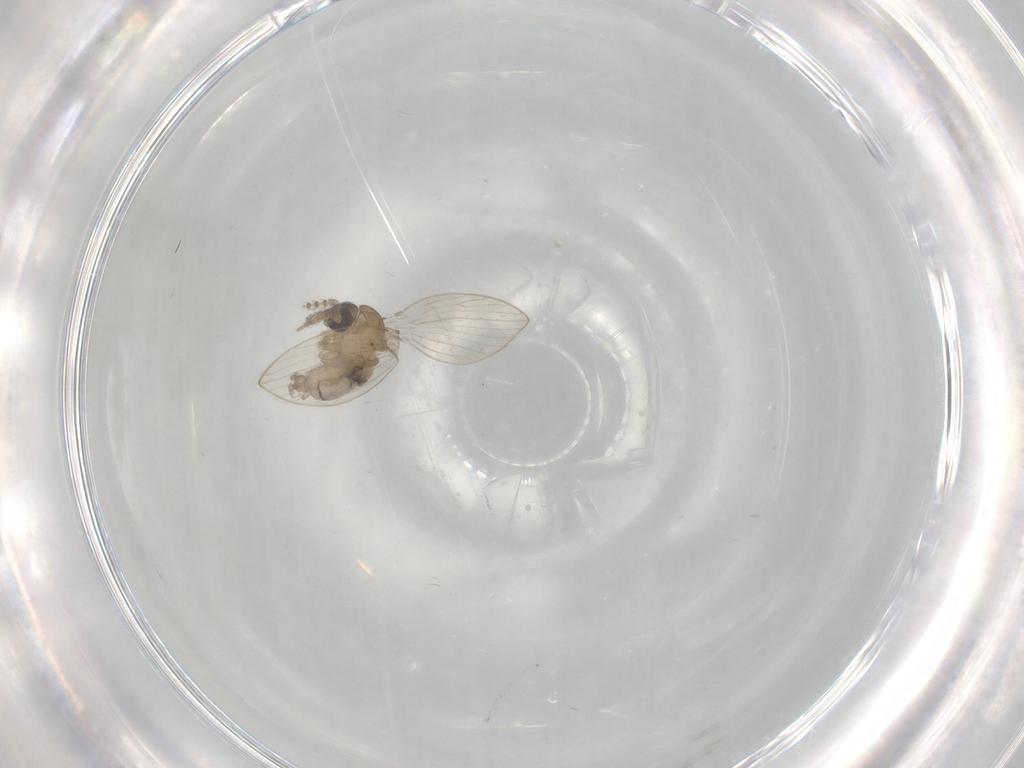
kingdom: Animalia
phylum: Arthropoda
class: Insecta
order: Diptera
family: Psychodidae
